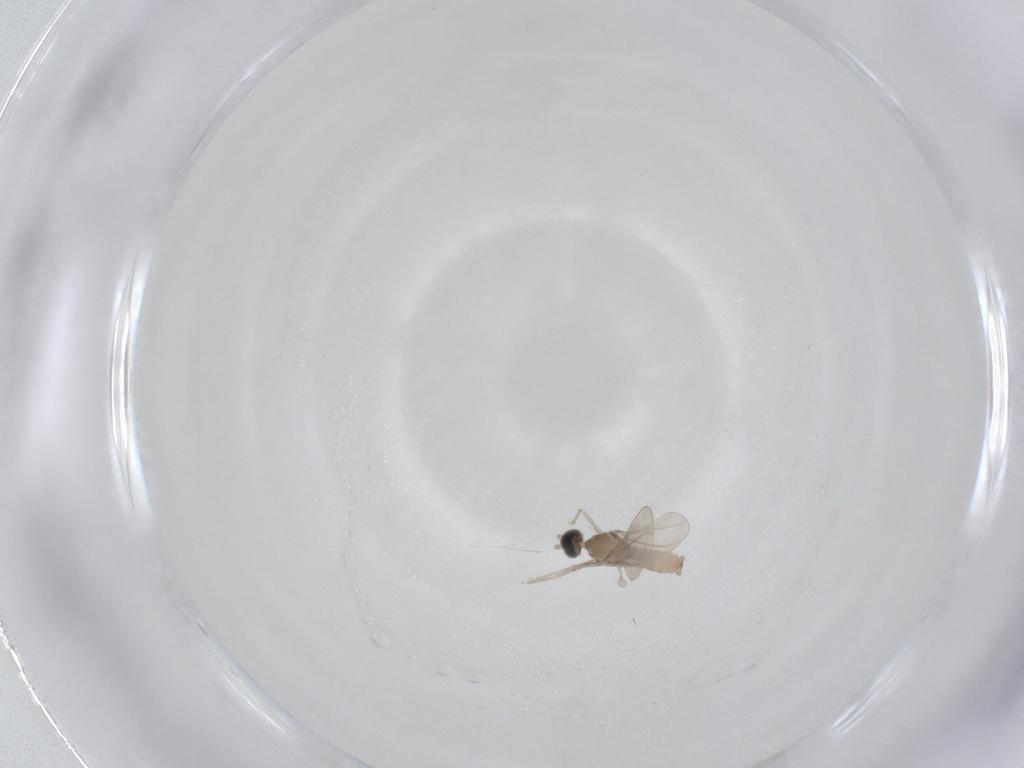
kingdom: Animalia
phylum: Arthropoda
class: Insecta
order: Diptera
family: Cecidomyiidae
